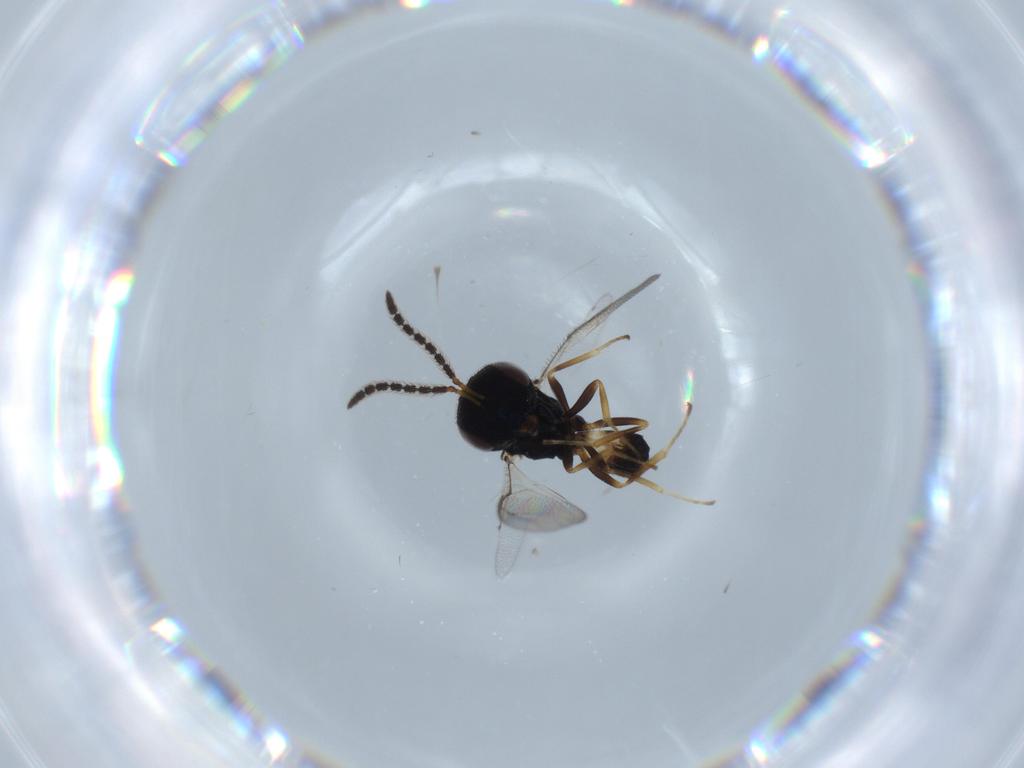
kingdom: Animalia
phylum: Arthropoda
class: Insecta
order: Hymenoptera
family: Pteromalidae
